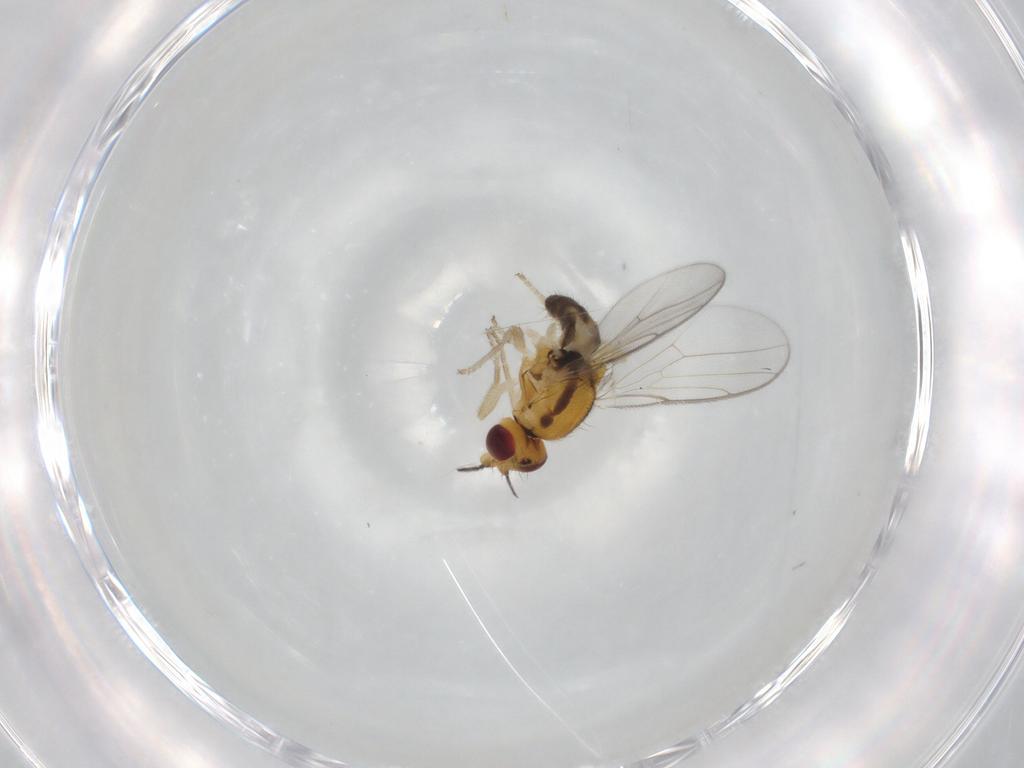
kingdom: Animalia
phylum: Arthropoda
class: Insecta
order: Diptera
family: Chloropidae
